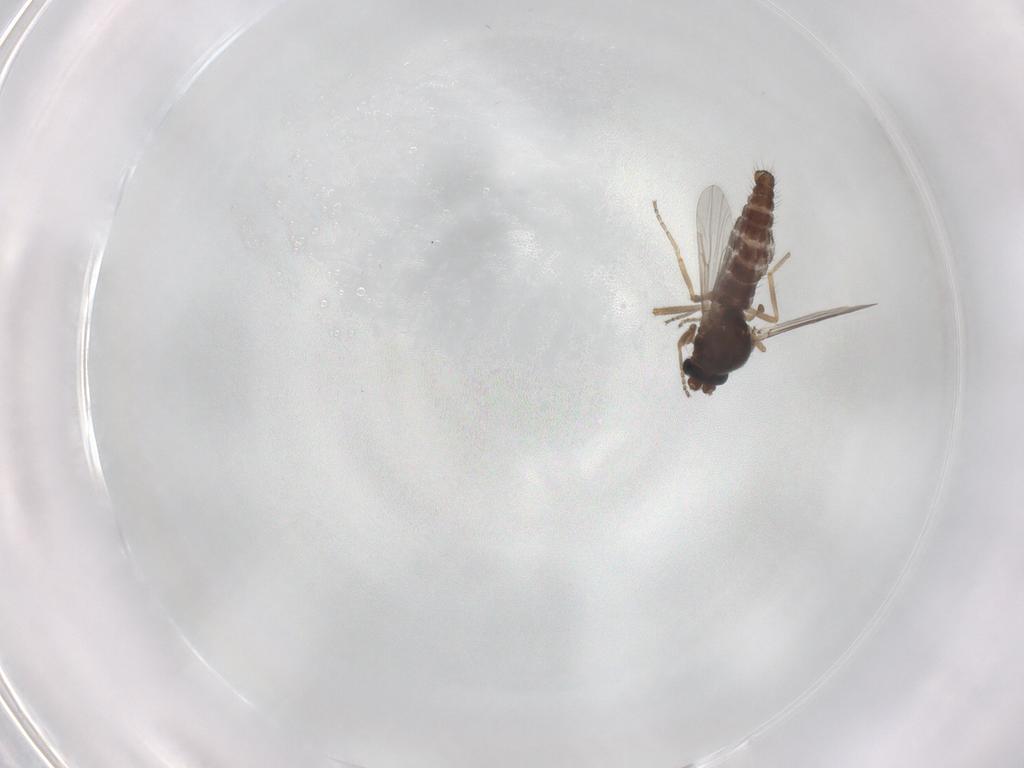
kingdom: Animalia
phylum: Arthropoda
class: Insecta
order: Diptera
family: Ceratopogonidae
